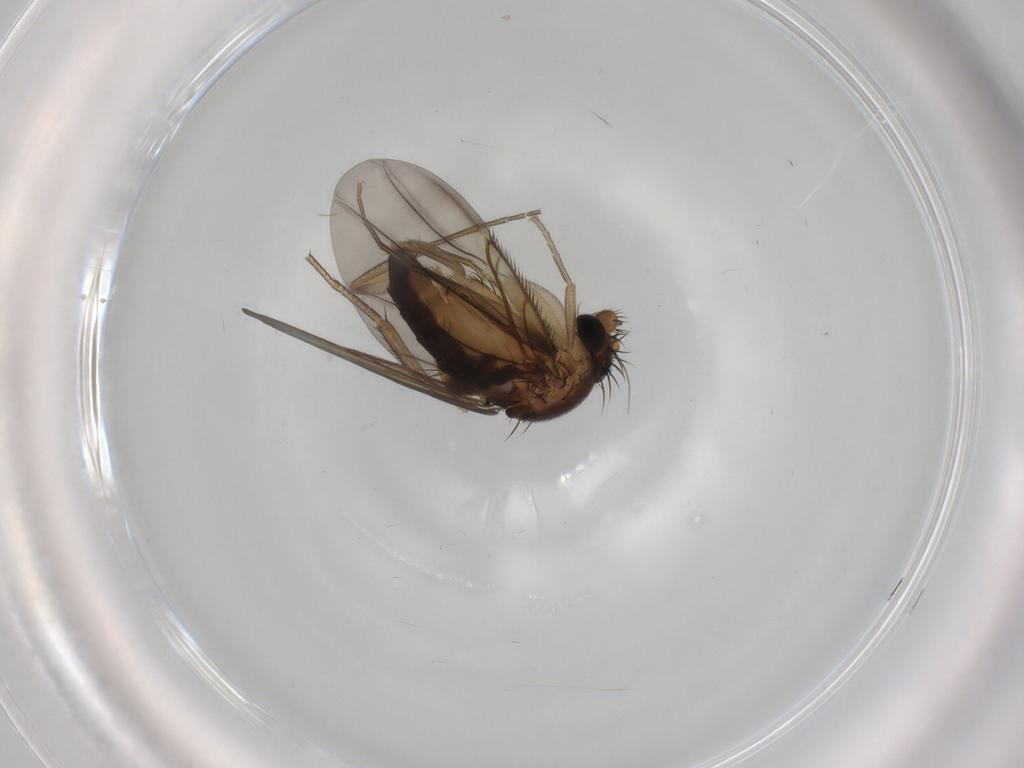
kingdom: Animalia
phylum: Arthropoda
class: Insecta
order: Diptera
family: Phoridae
